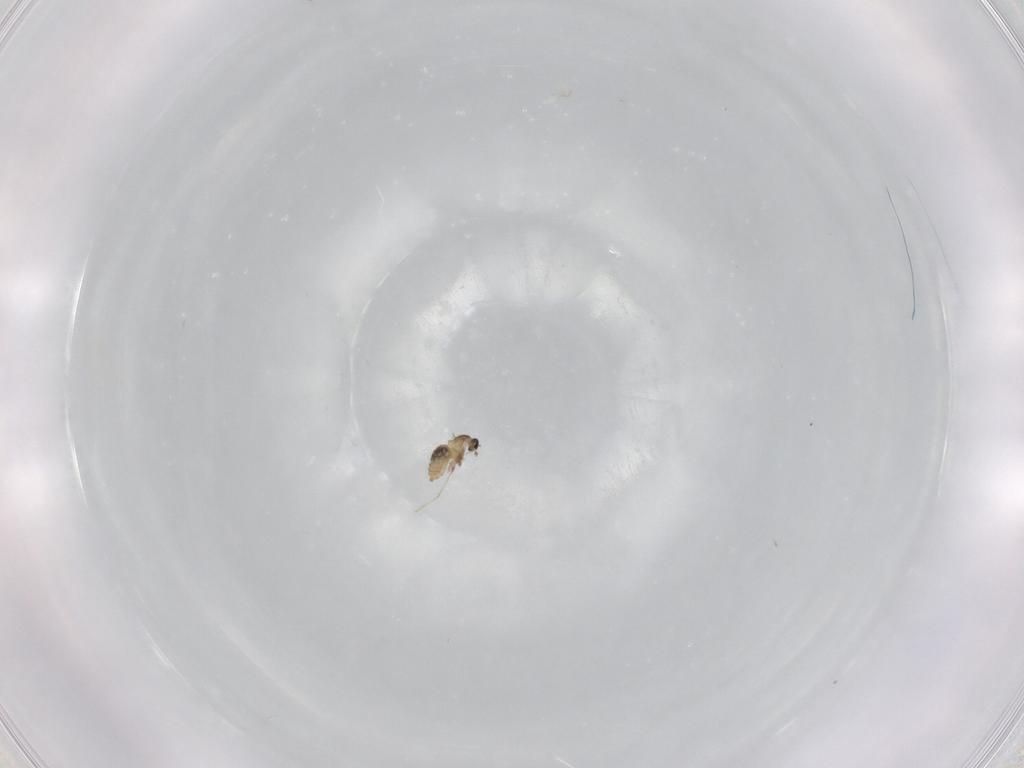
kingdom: Animalia
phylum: Arthropoda
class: Insecta
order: Diptera
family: Cecidomyiidae
